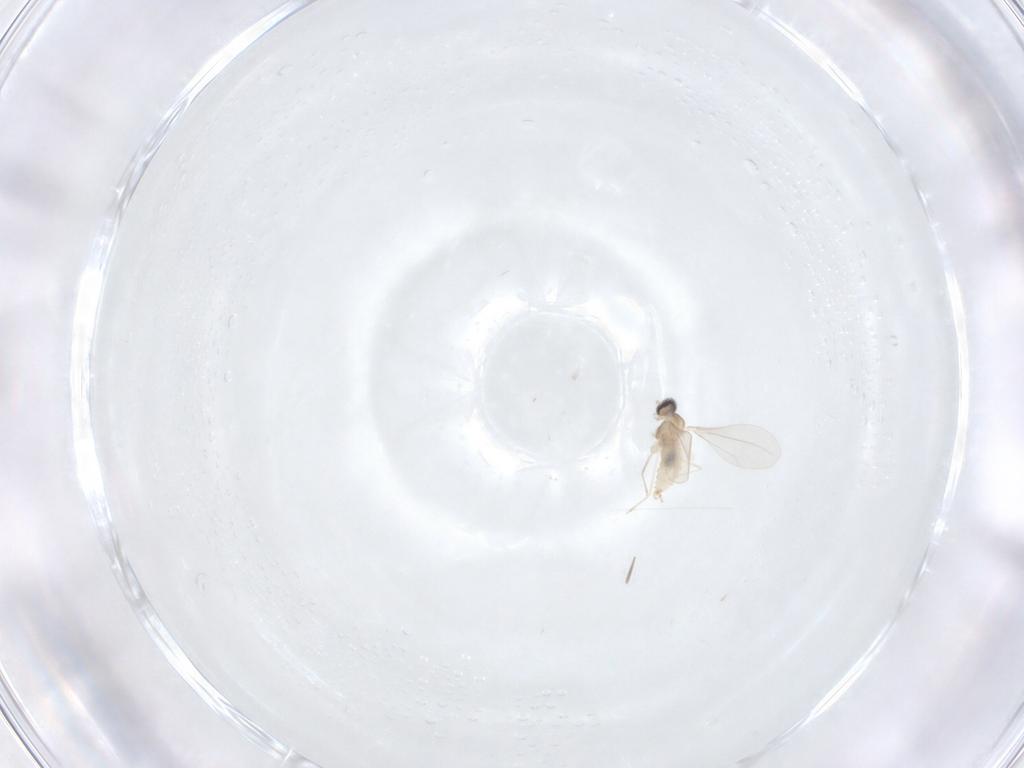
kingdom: Animalia
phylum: Arthropoda
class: Insecta
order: Diptera
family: Cecidomyiidae
